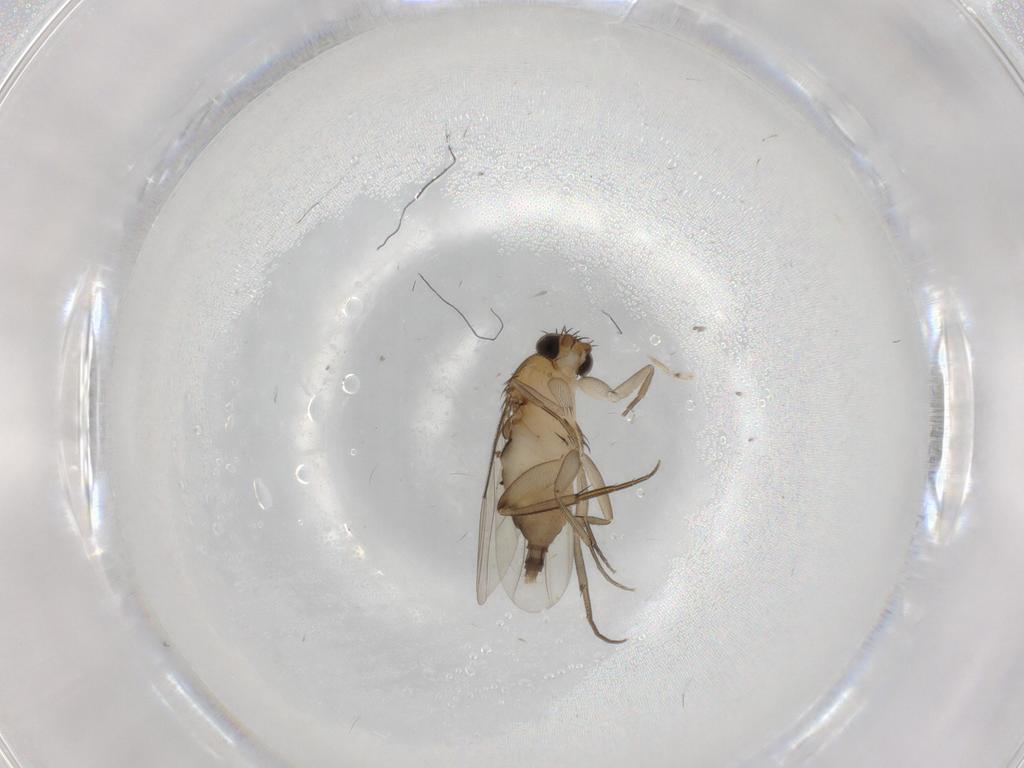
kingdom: Animalia
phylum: Arthropoda
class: Insecta
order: Diptera
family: Phoridae
